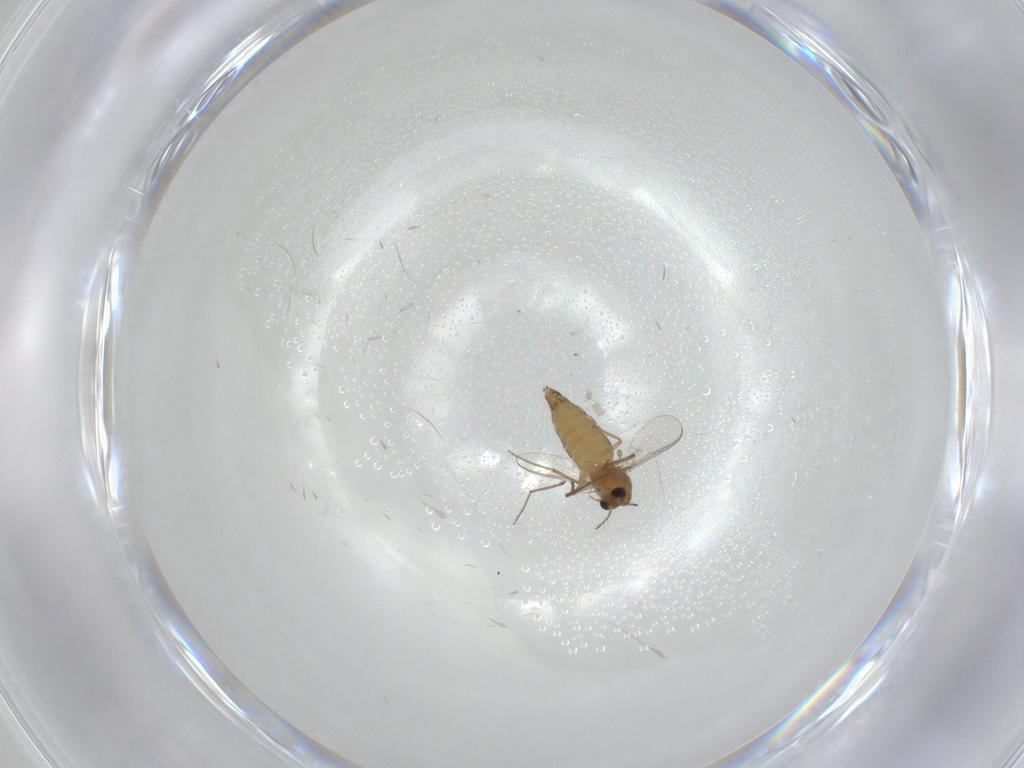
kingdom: Animalia
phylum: Arthropoda
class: Insecta
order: Diptera
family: Chironomidae
